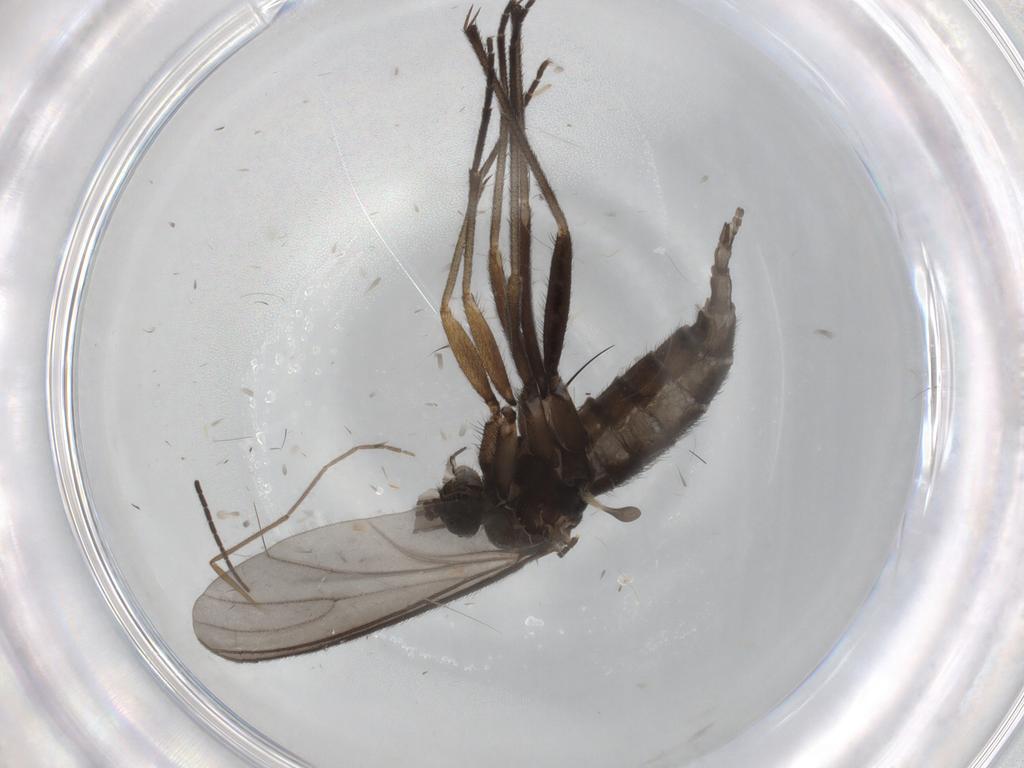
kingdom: Animalia
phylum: Arthropoda
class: Insecta
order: Diptera
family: Sciaridae
